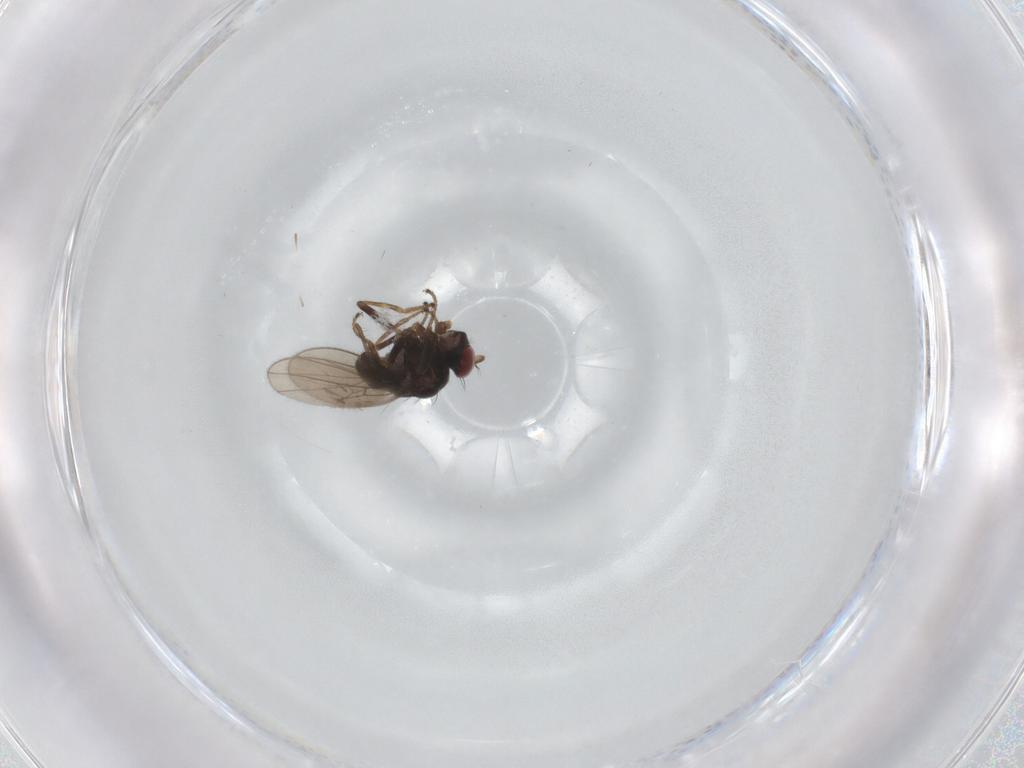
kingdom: Animalia
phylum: Arthropoda
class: Insecta
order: Diptera
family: Ephydridae
